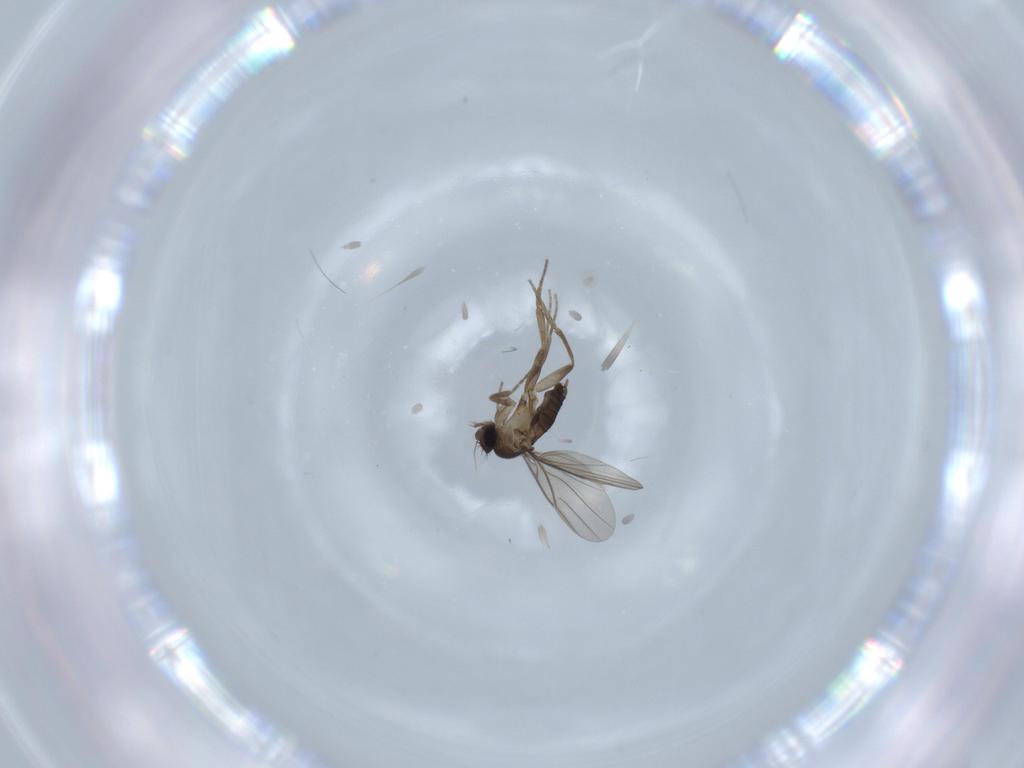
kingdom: Animalia
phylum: Arthropoda
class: Insecta
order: Diptera
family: Phoridae
